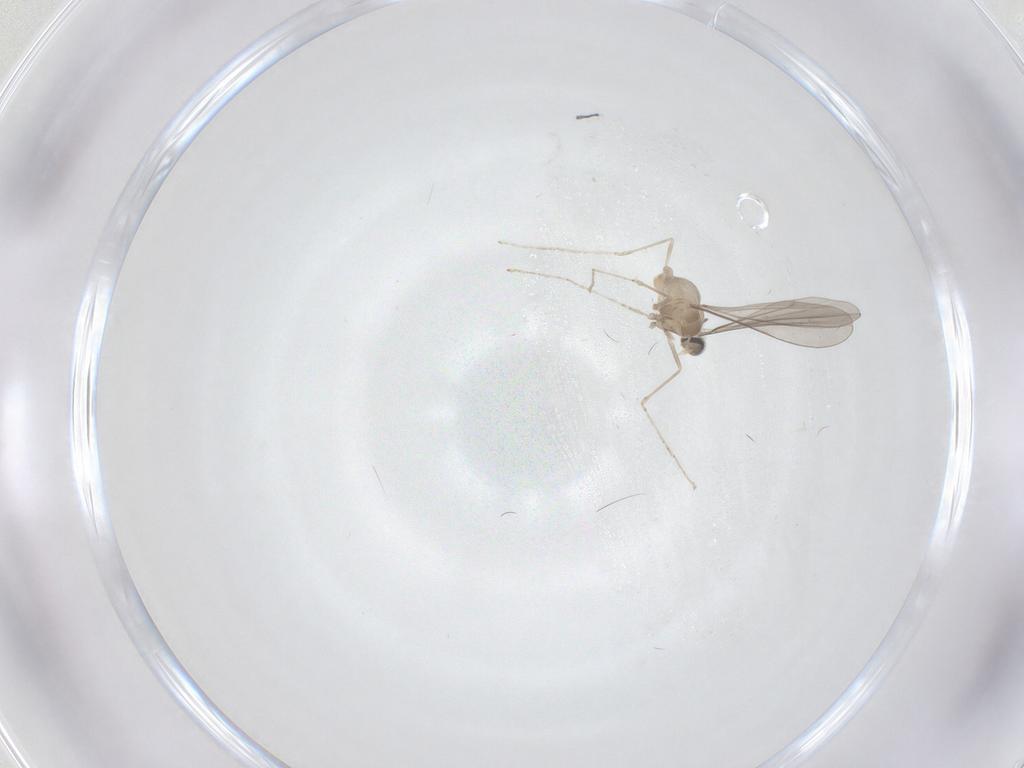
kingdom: Animalia
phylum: Arthropoda
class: Insecta
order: Diptera
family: Cecidomyiidae
